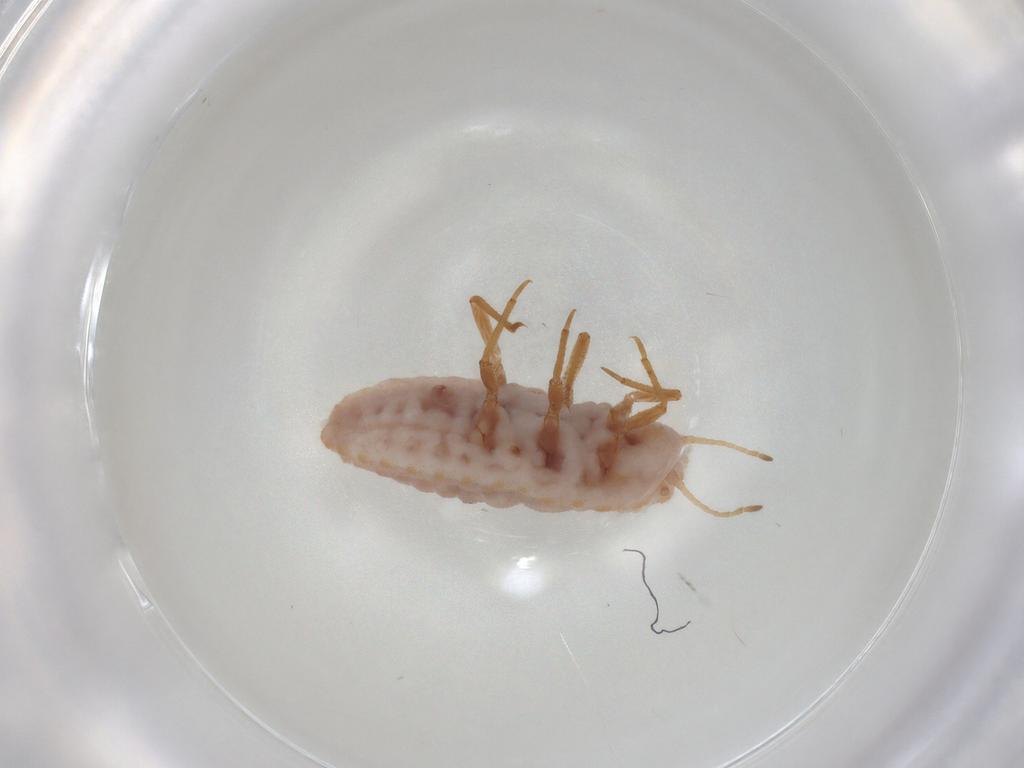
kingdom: Animalia
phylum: Arthropoda
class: Insecta
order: Hemiptera
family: Coccoidea_incertae_sedis
